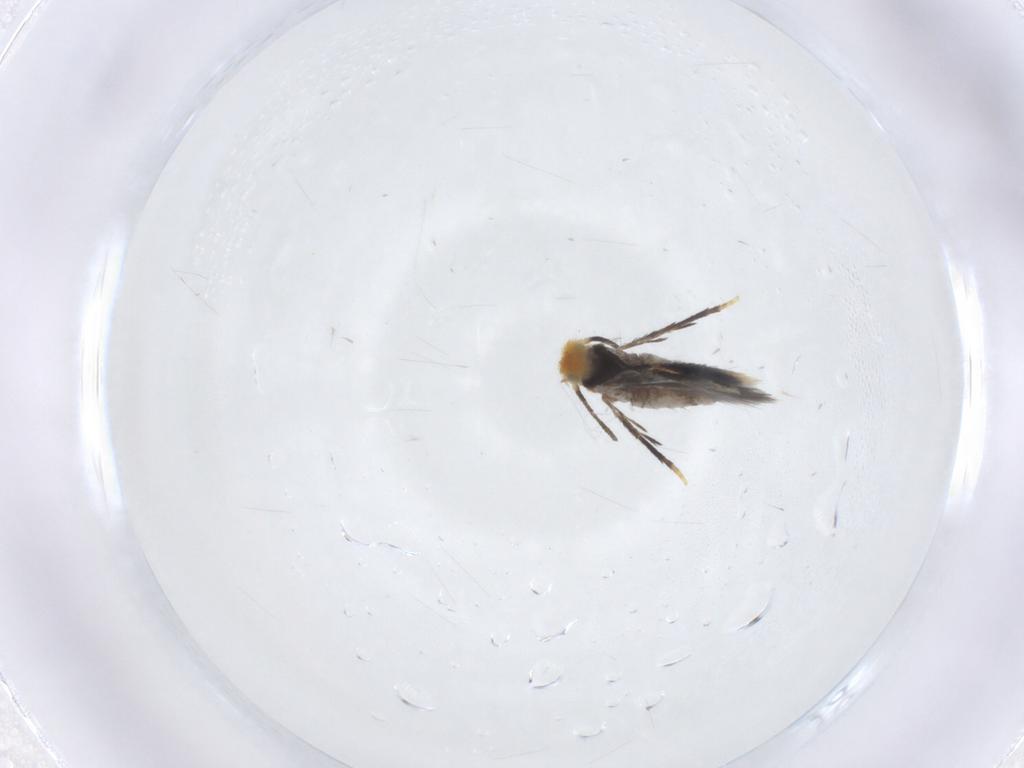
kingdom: Animalia
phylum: Arthropoda
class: Insecta
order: Lepidoptera
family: Nepticulidae
